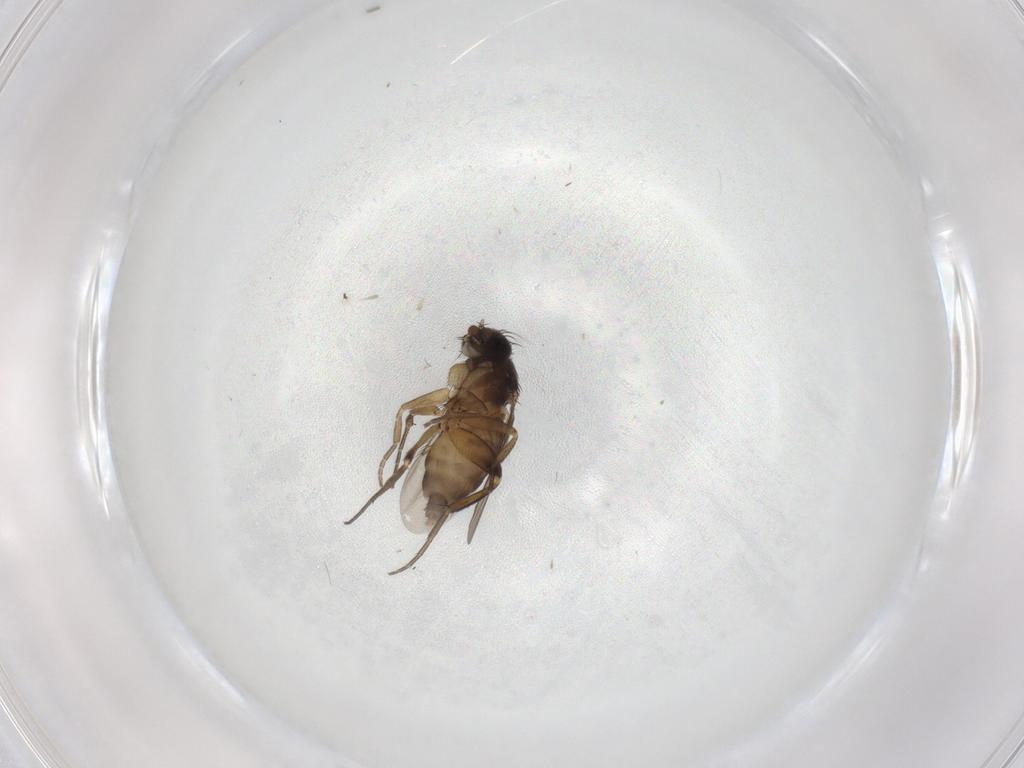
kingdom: Animalia
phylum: Arthropoda
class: Insecta
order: Diptera
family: Phoridae
